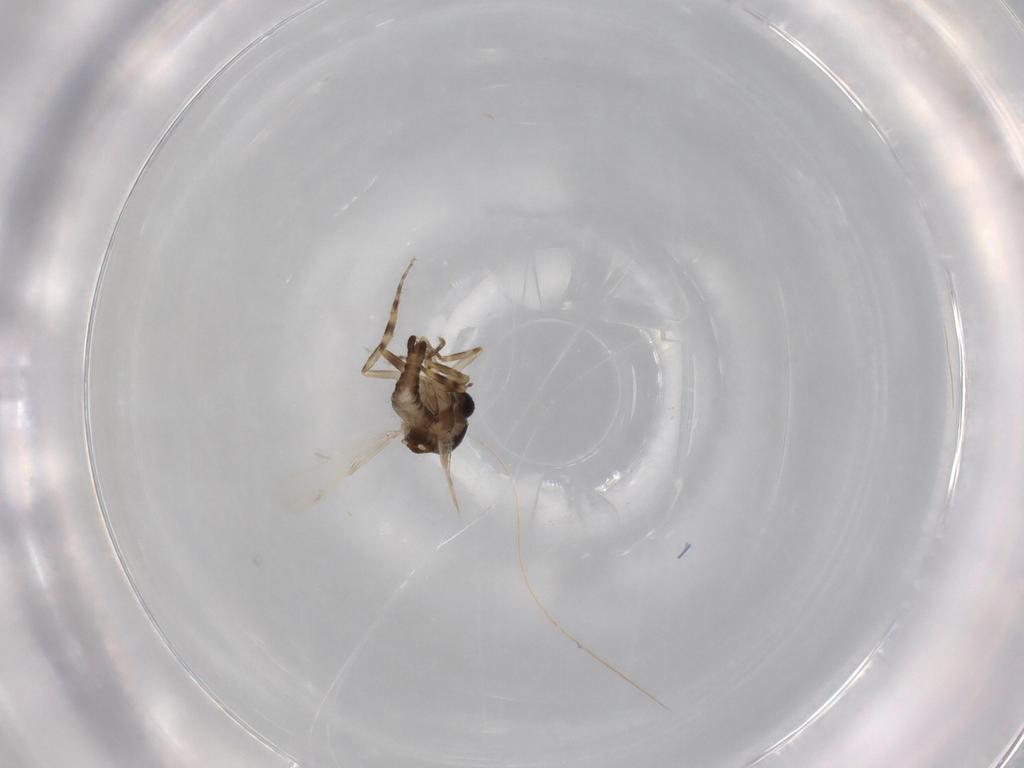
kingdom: Animalia
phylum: Arthropoda
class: Insecta
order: Diptera
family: Ceratopogonidae
